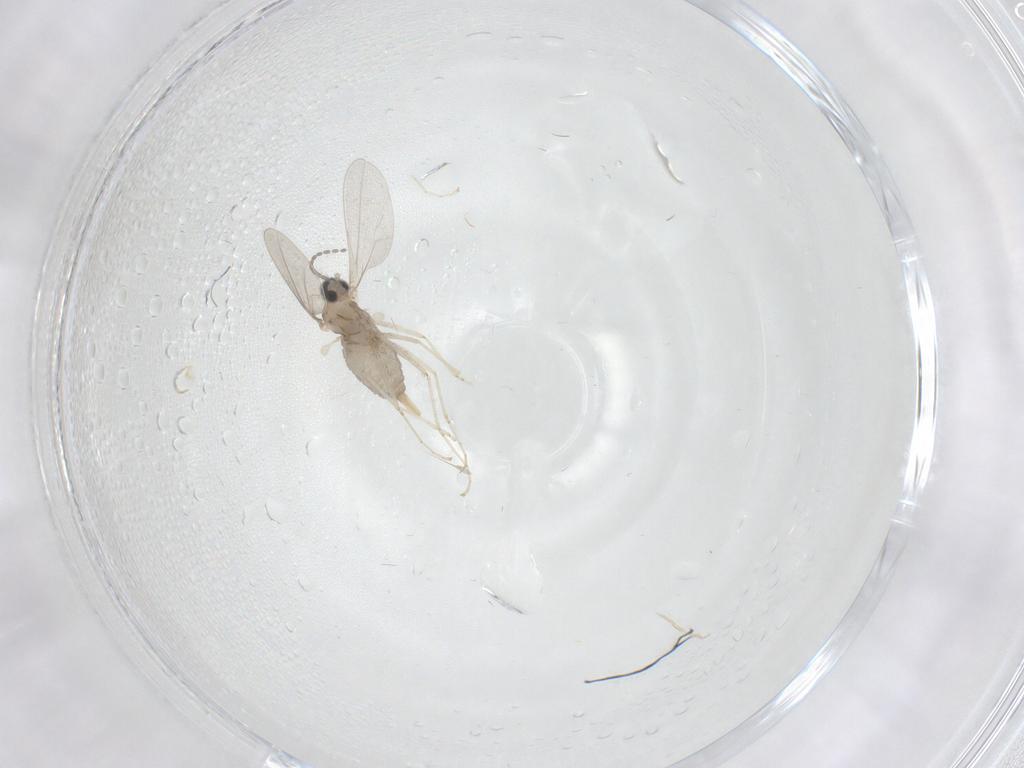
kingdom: Animalia
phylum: Arthropoda
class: Insecta
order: Diptera
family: Cecidomyiidae
